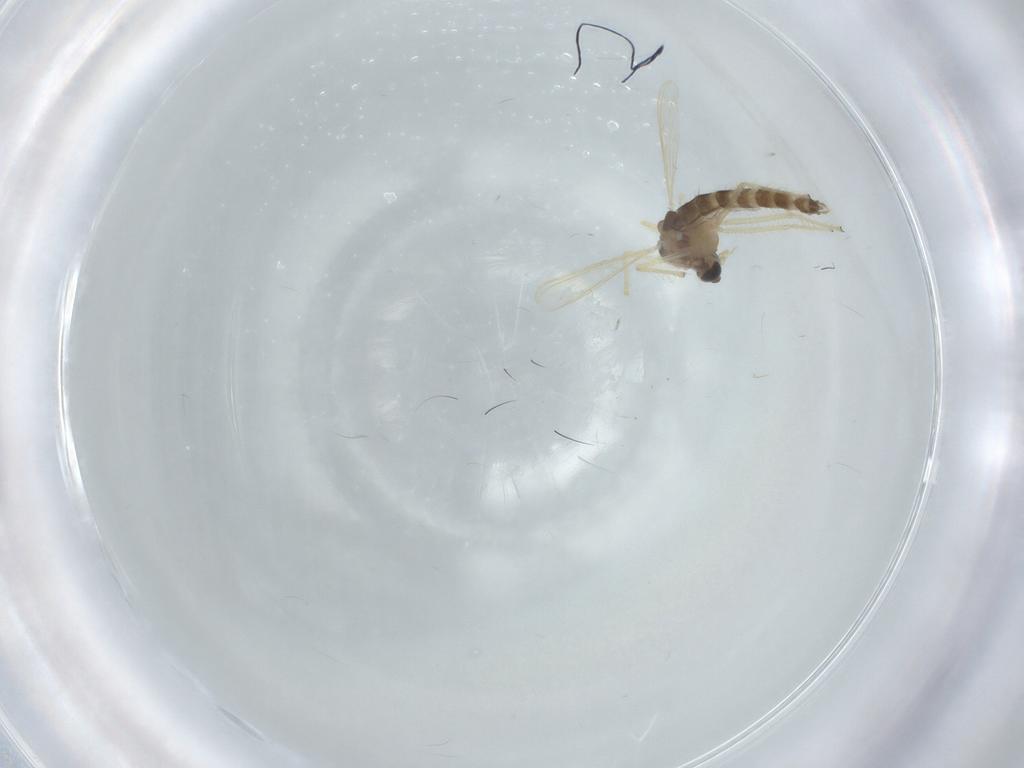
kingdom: Animalia
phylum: Arthropoda
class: Insecta
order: Diptera
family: Chironomidae
